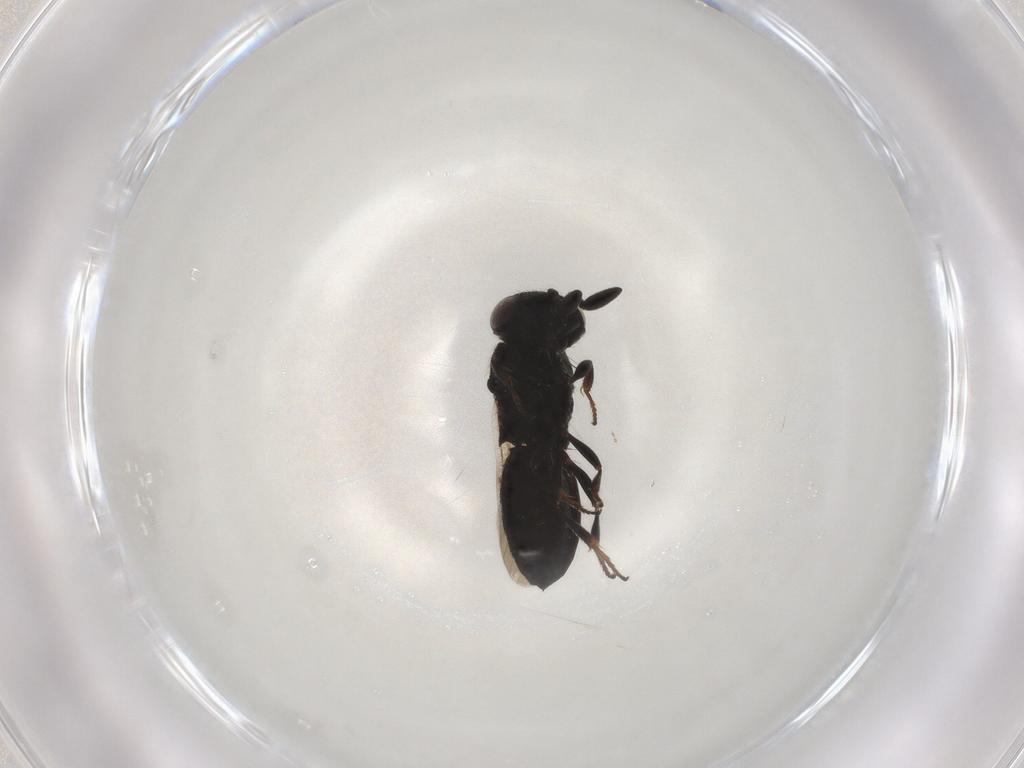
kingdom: Animalia
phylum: Arthropoda
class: Insecta
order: Hymenoptera
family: Scelionidae
